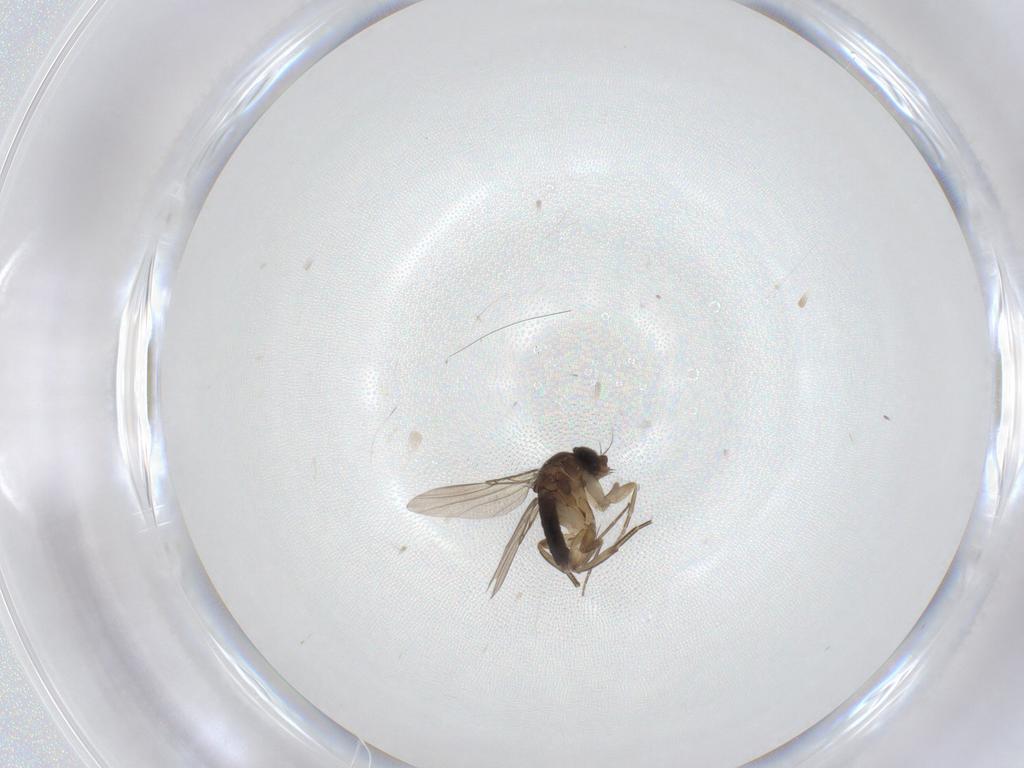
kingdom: Animalia
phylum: Arthropoda
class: Insecta
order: Diptera
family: Phoridae
